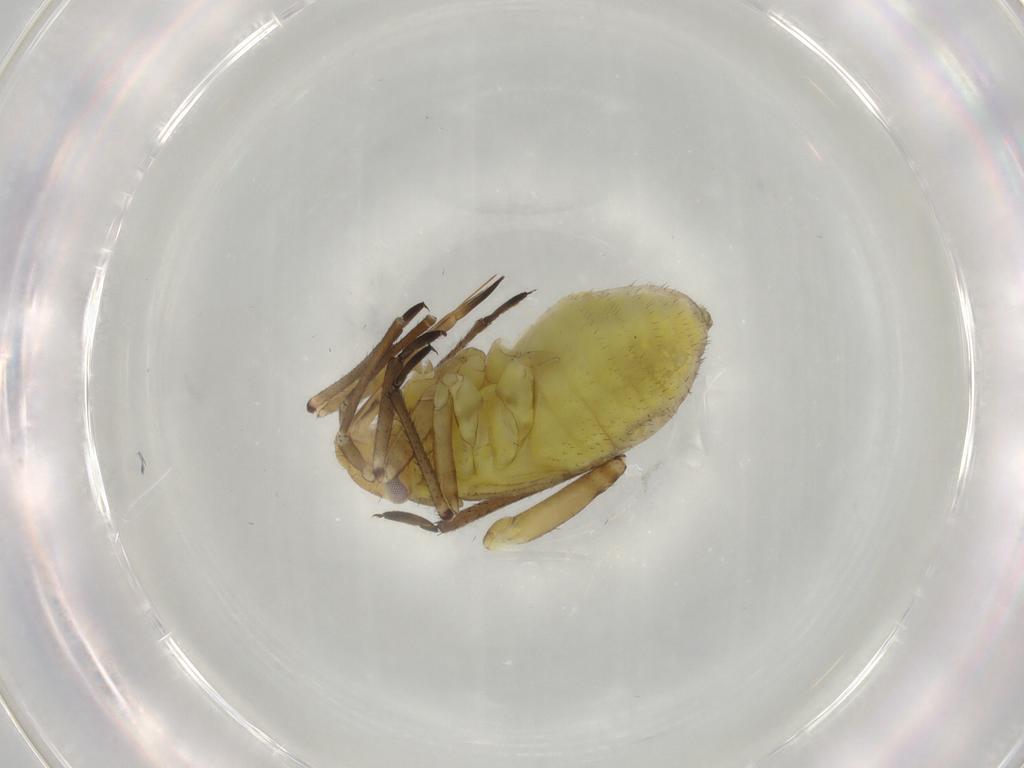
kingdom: Animalia
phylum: Arthropoda
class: Insecta
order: Hemiptera
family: Miridae
